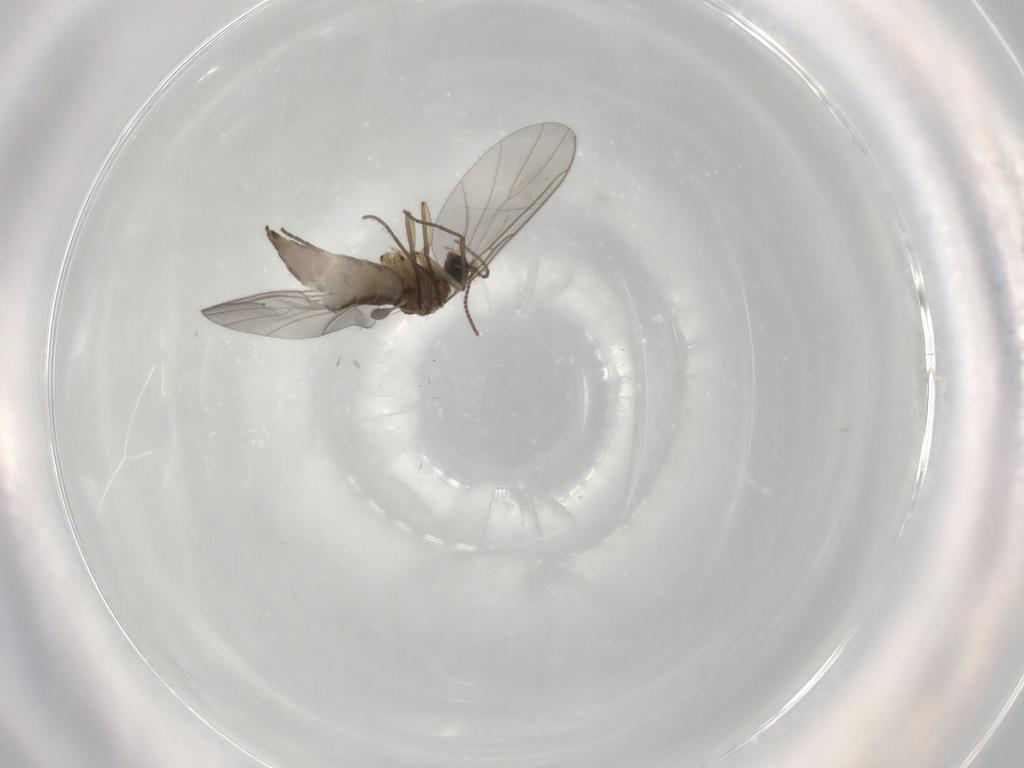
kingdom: Animalia
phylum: Arthropoda
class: Insecta
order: Diptera
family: Sciaridae
